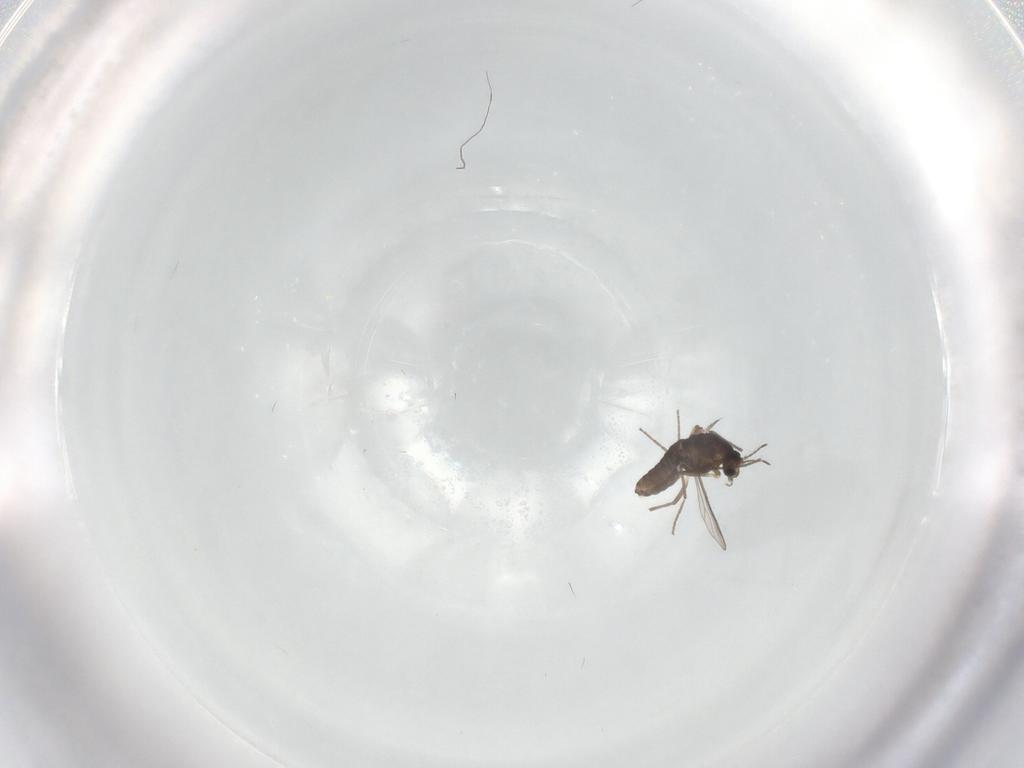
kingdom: Animalia
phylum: Arthropoda
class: Insecta
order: Diptera
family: Chironomidae
